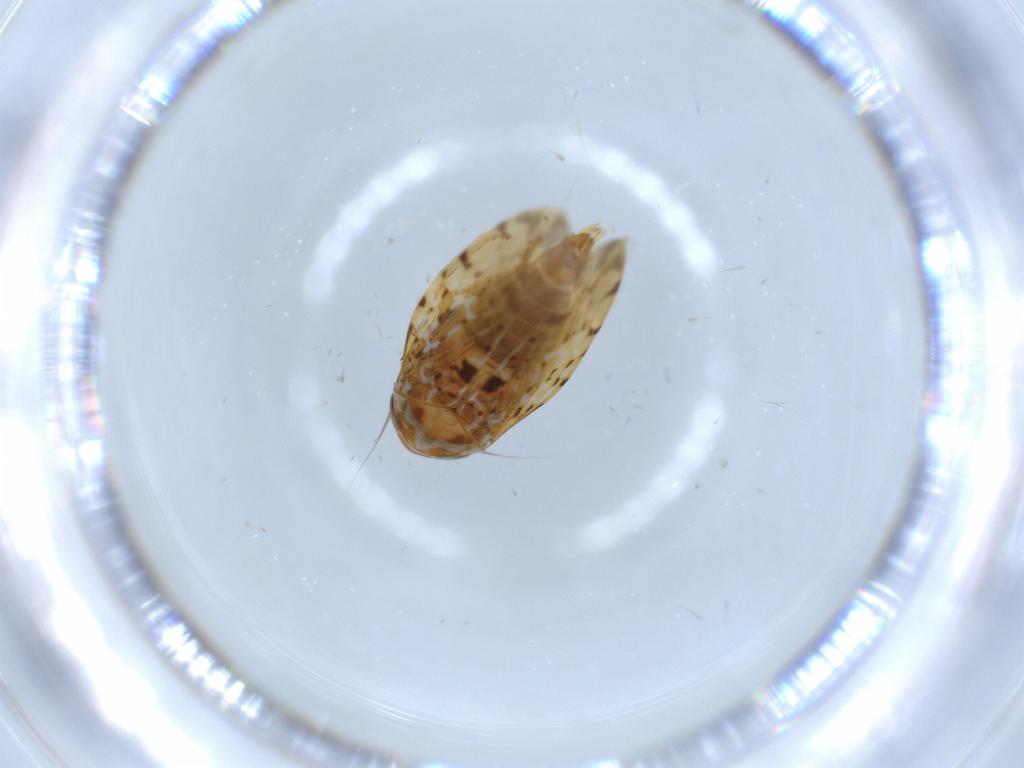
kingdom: Animalia
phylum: Arthropoda
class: Insecta
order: Hemiptera
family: Cicadellidae
